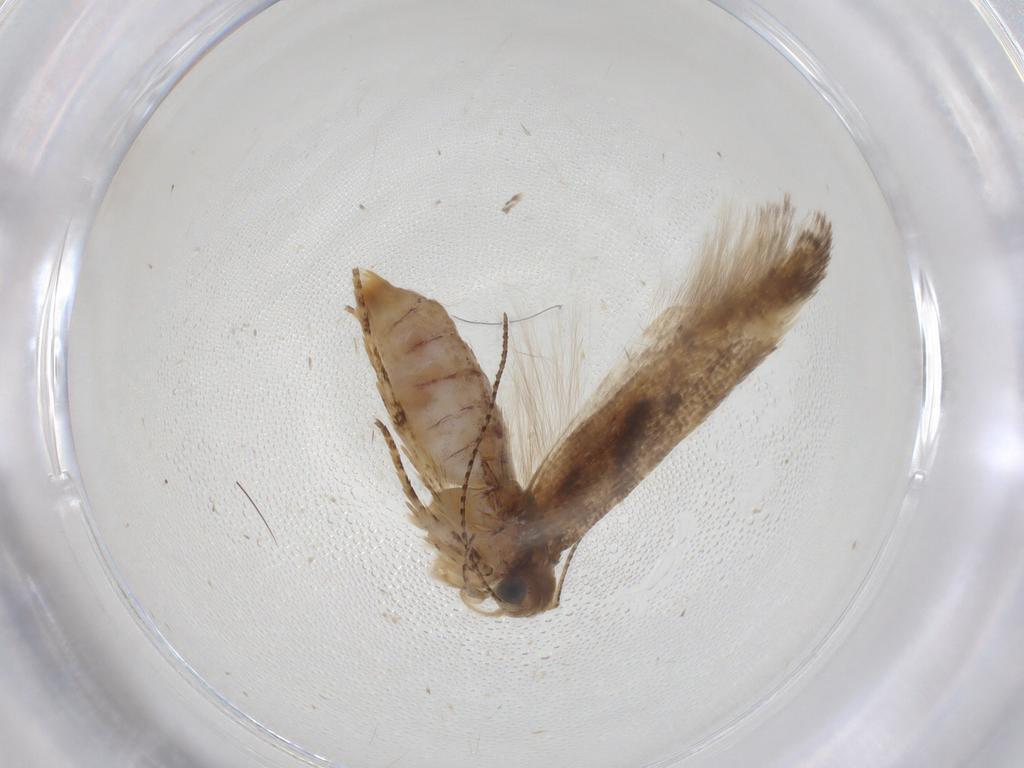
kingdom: Animalia
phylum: Arthropoda
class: Insecta
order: Lepidoptera
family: Gelechiidae
